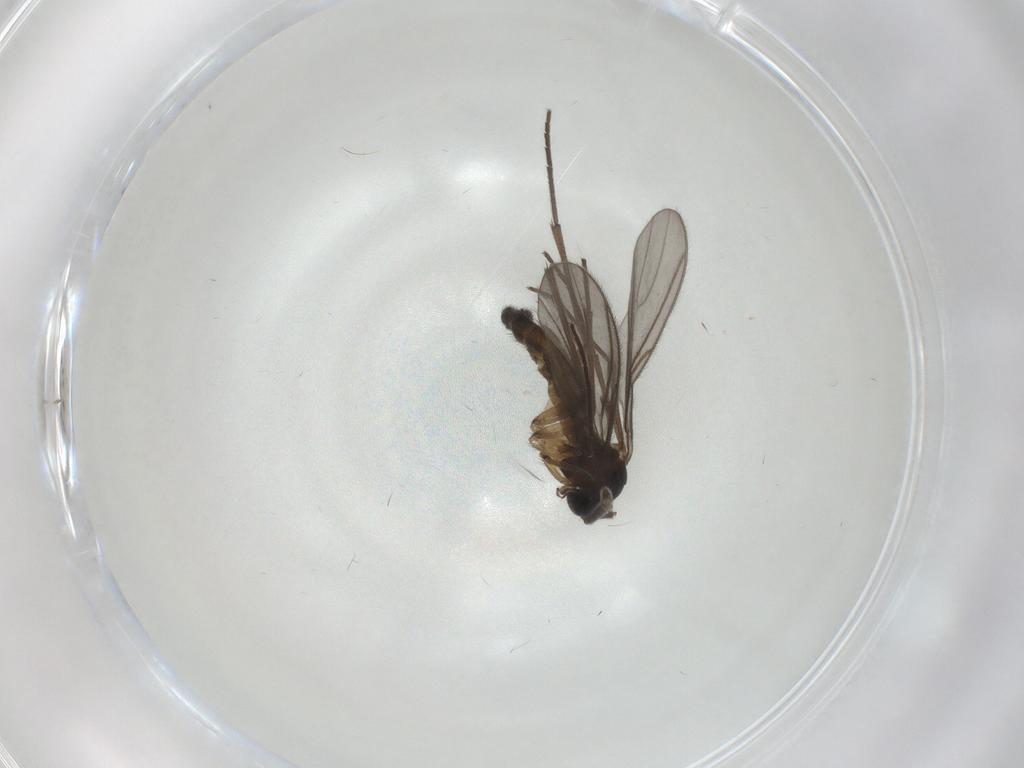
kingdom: Animalia
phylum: Arthropoda
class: Insecta
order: Diptera
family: Sciaridae
